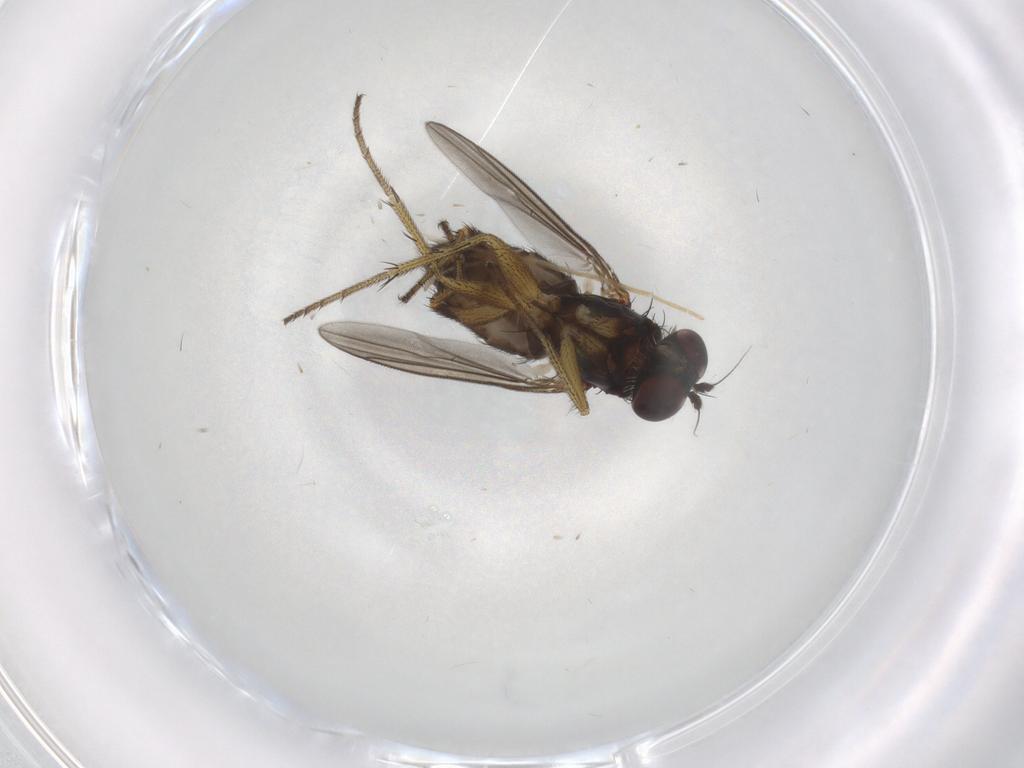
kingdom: Animalia
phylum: Arthropoda
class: Insecta
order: Diptera
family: Dolichopodidae
